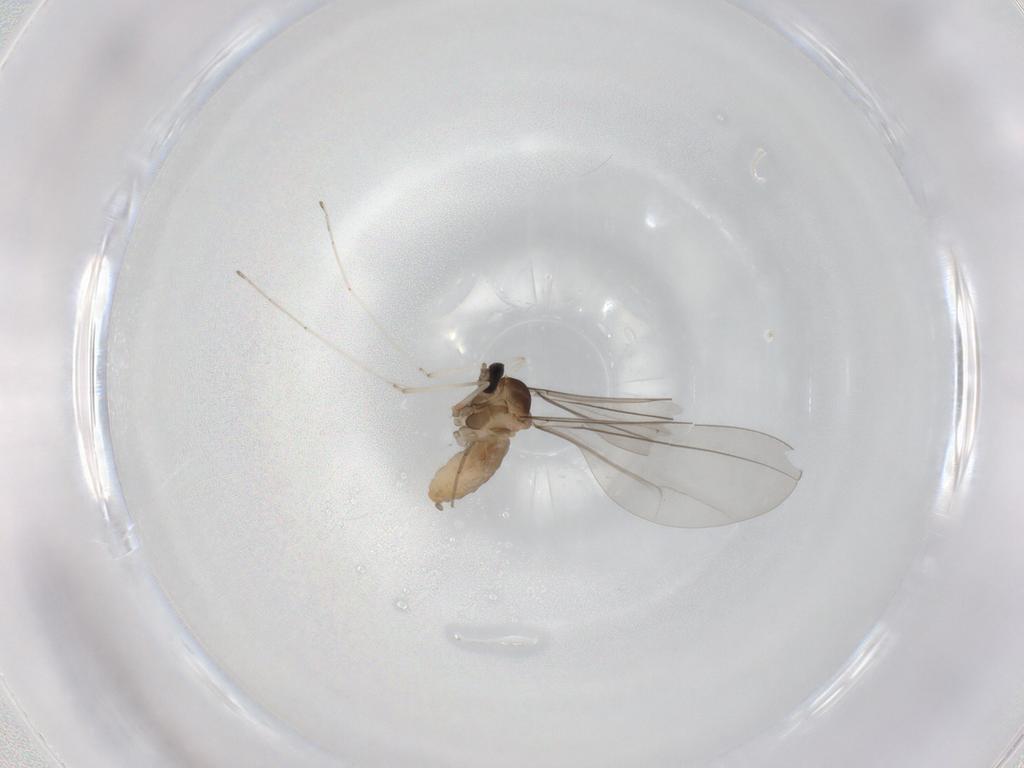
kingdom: Animalia
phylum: Arthropoda
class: Insecta
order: Diptera
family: Cecidomyiidae
